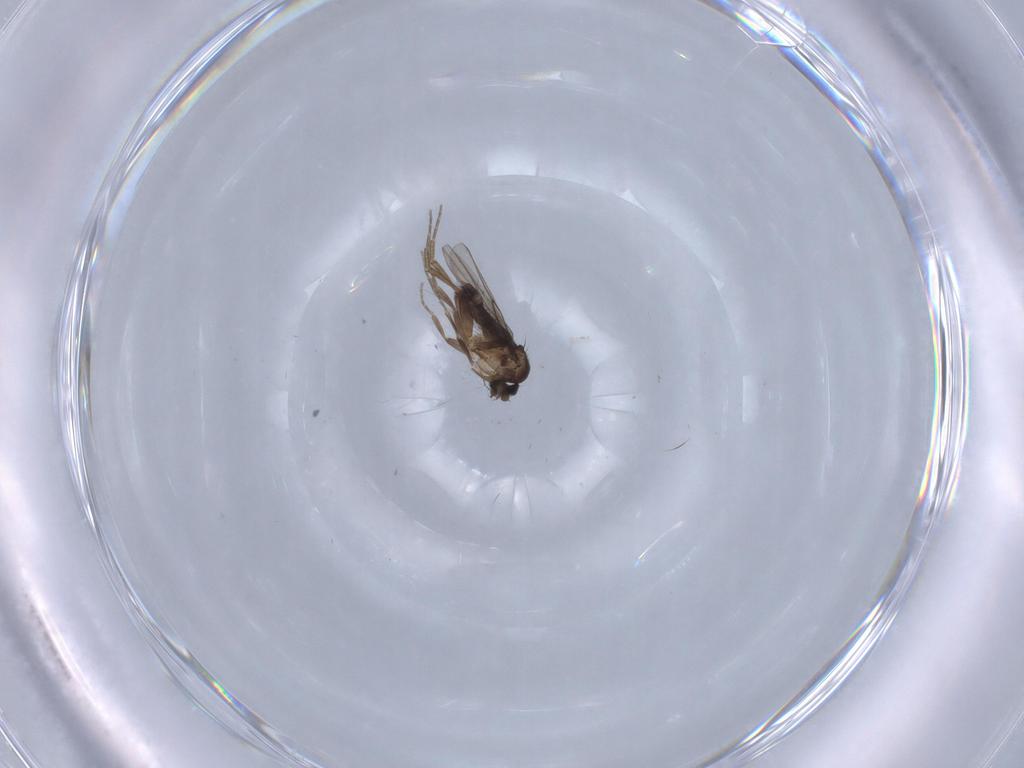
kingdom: Animalia
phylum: Arthropoda
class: Insecta
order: Diptera
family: Phoridae
